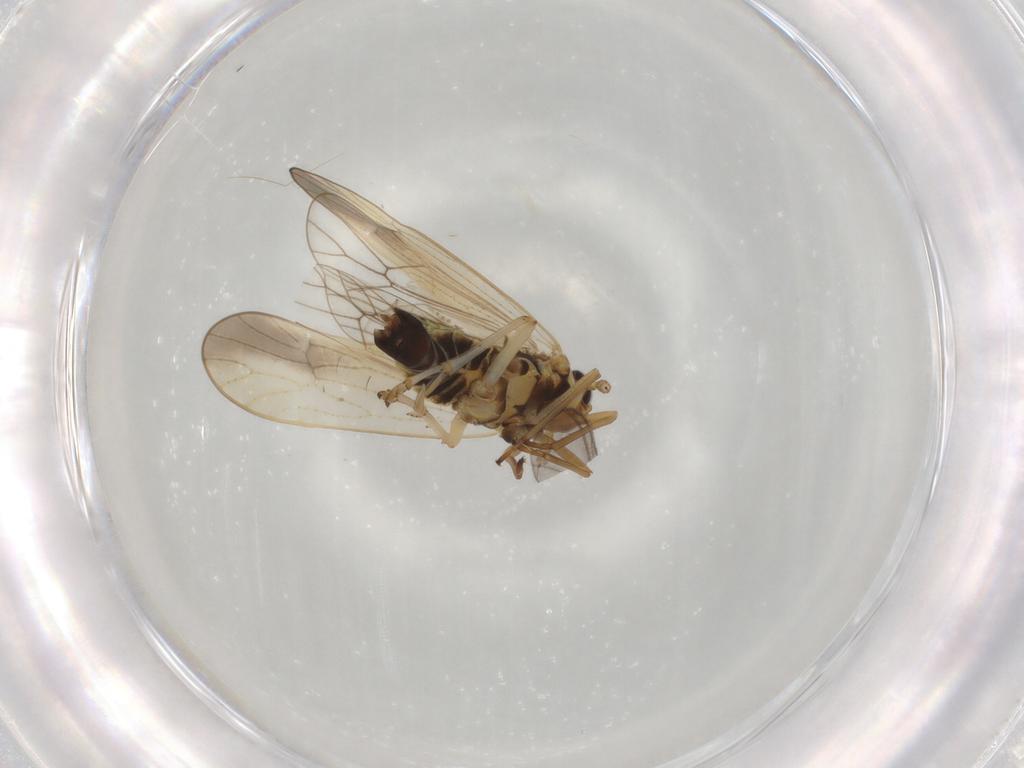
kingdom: Animalia
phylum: Arthropoda
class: Insecta
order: Hemiptera
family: Delphacidae
